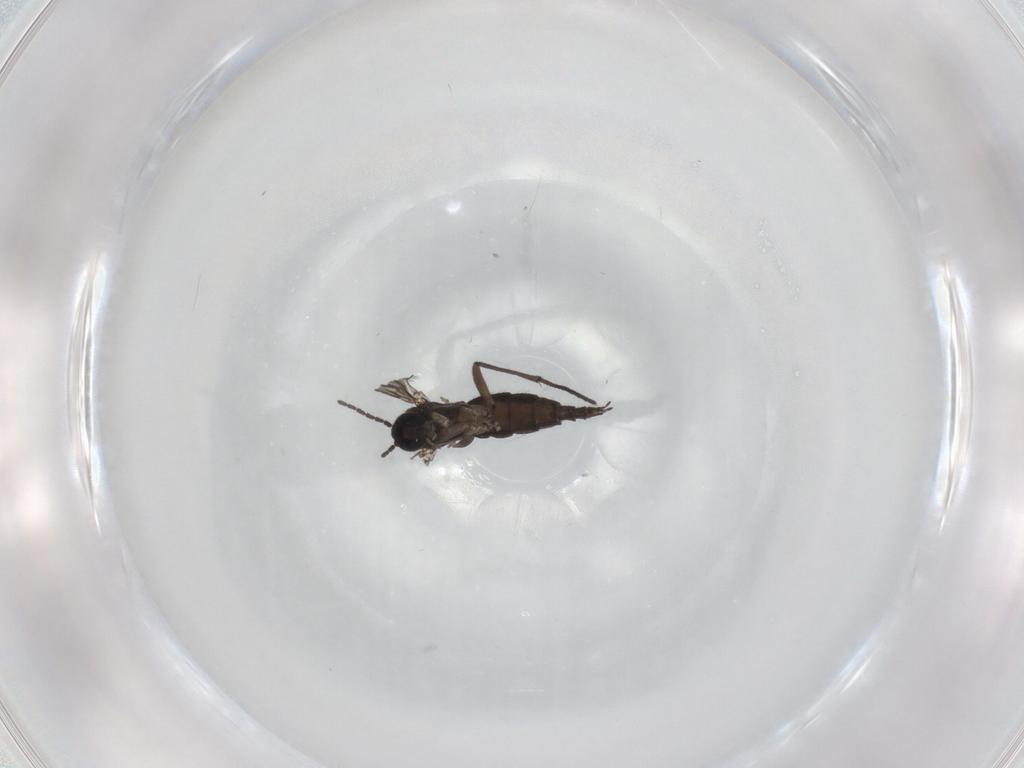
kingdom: Animalia
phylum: Arthropoda
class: Insecta
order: Diptera
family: Sciaridae
